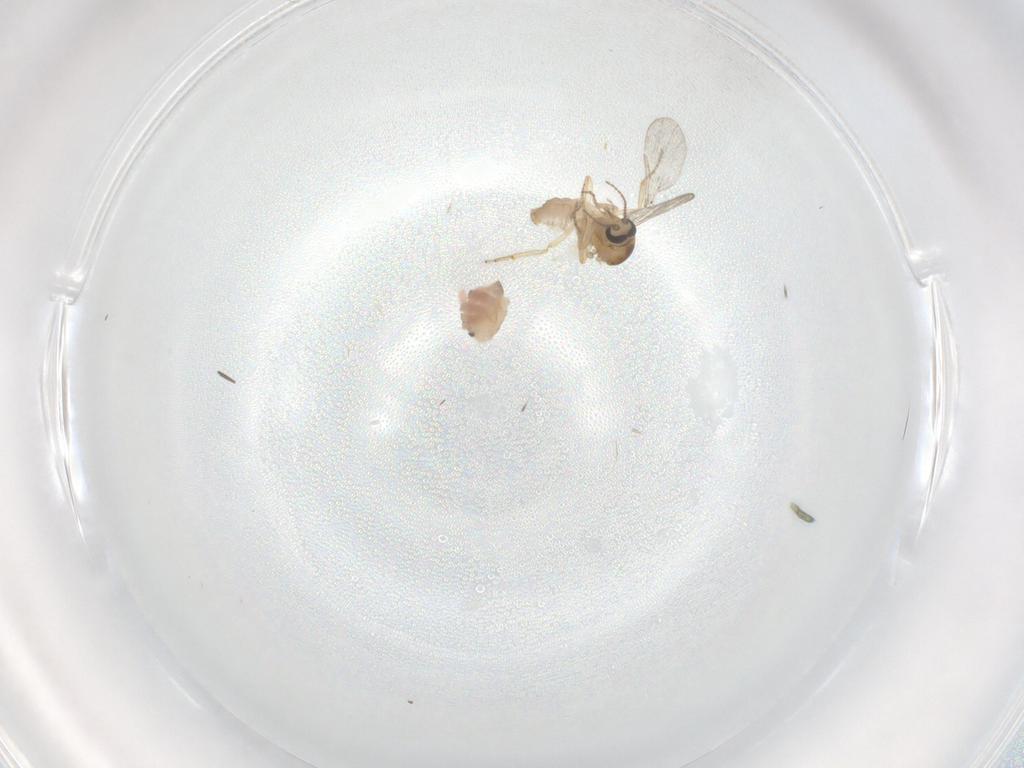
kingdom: Animalia
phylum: Arthropoda
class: Insecta
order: Diptera
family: Ceratopogonidae
